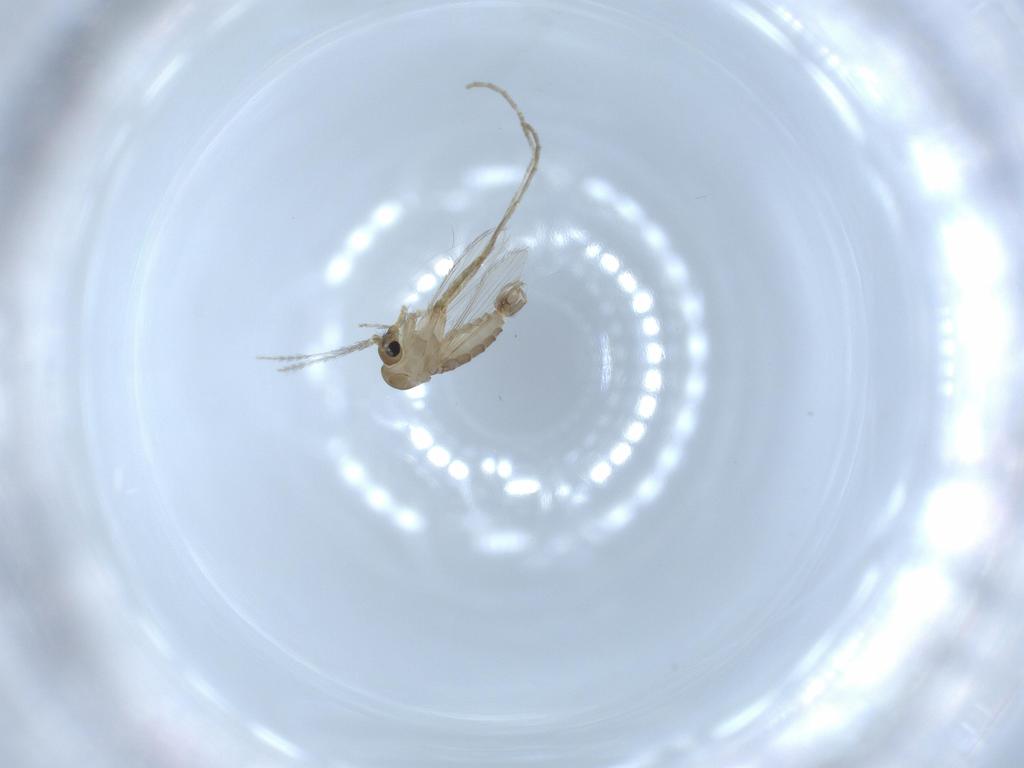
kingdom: Animalia
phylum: Arthropoda
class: Insecta
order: Diptera
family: Psychodidae
